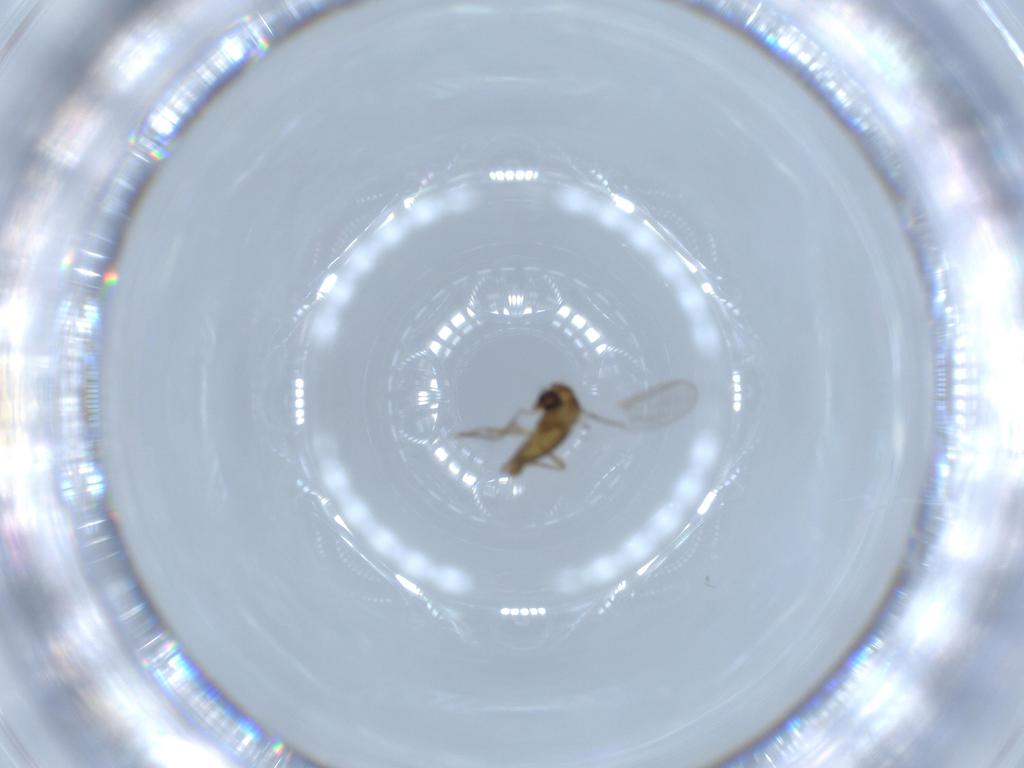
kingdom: Animalia
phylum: Arthropoda
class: Insecta
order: Diptera
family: Chironomidae
